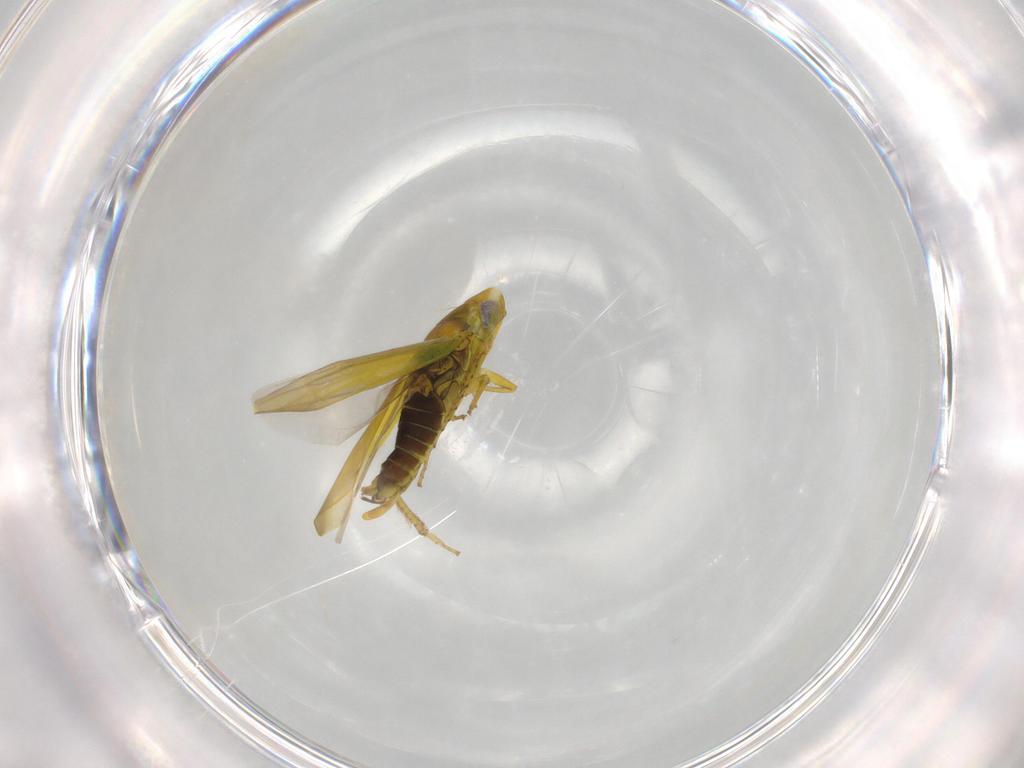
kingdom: Animalia
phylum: Arthropoda
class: Insecta
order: Hemiptera
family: Cicadellidae
